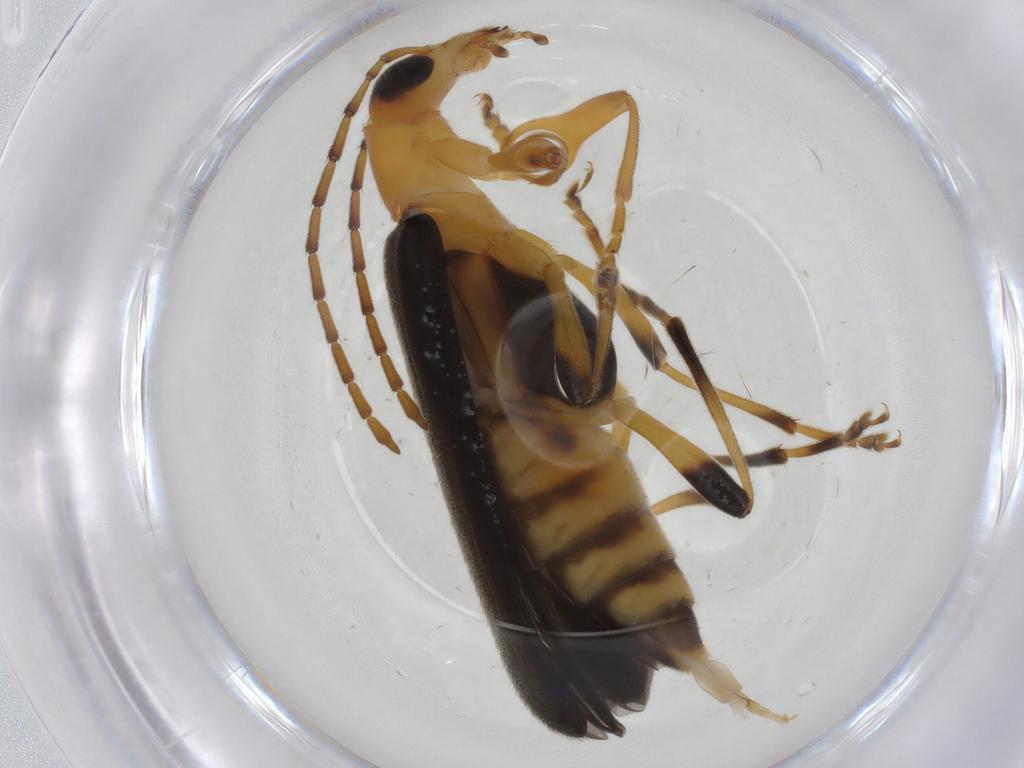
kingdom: Animalia
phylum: Arthropoda
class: Insecta
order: Coleoptera
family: Oedemeridae
